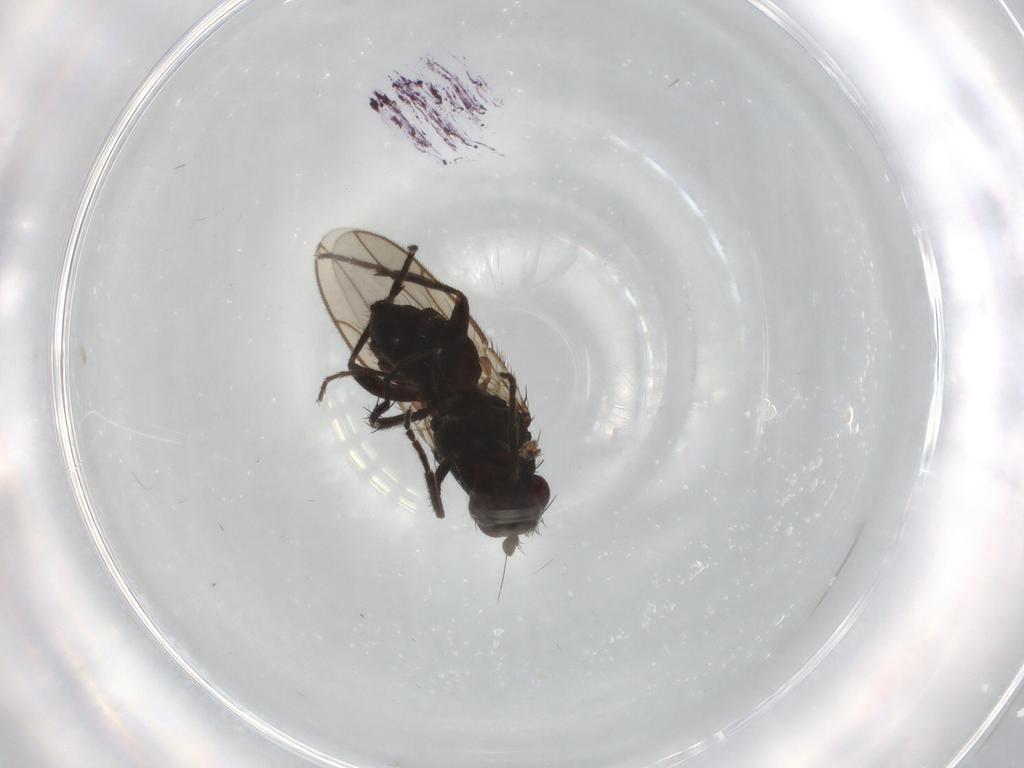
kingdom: Animalia
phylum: Arthropoda
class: Insecta
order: Diptera
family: Sphaeroceridae
